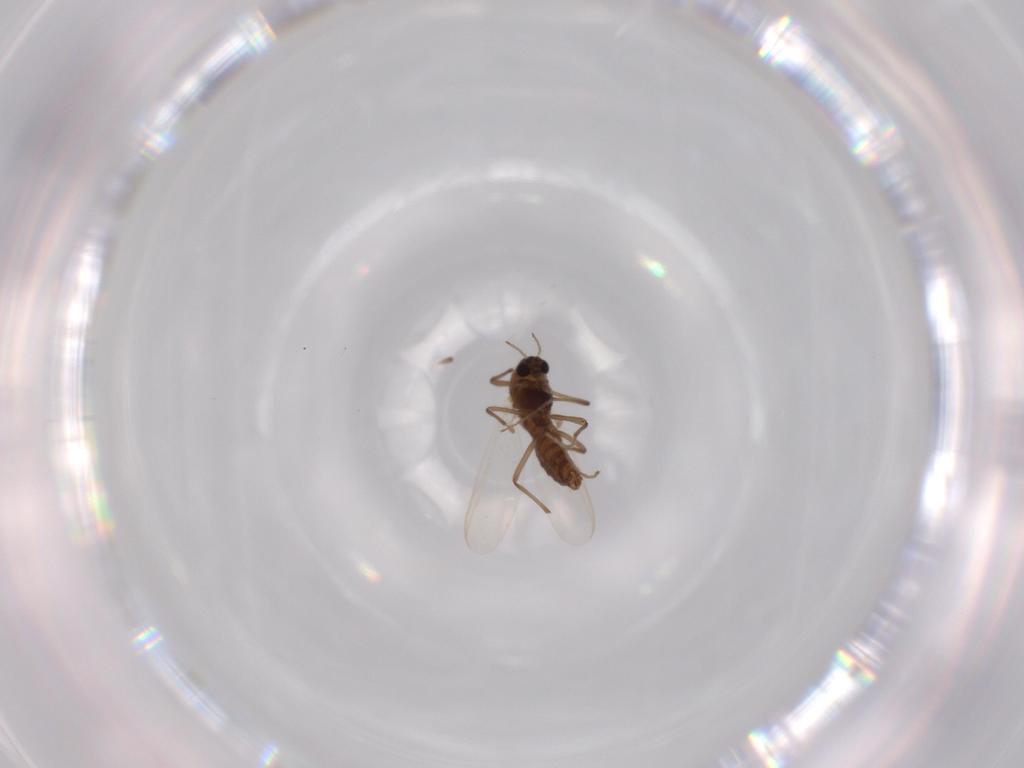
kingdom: Animalia
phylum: Arthropoda
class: Insecta
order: Diptera
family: Chironomidae
